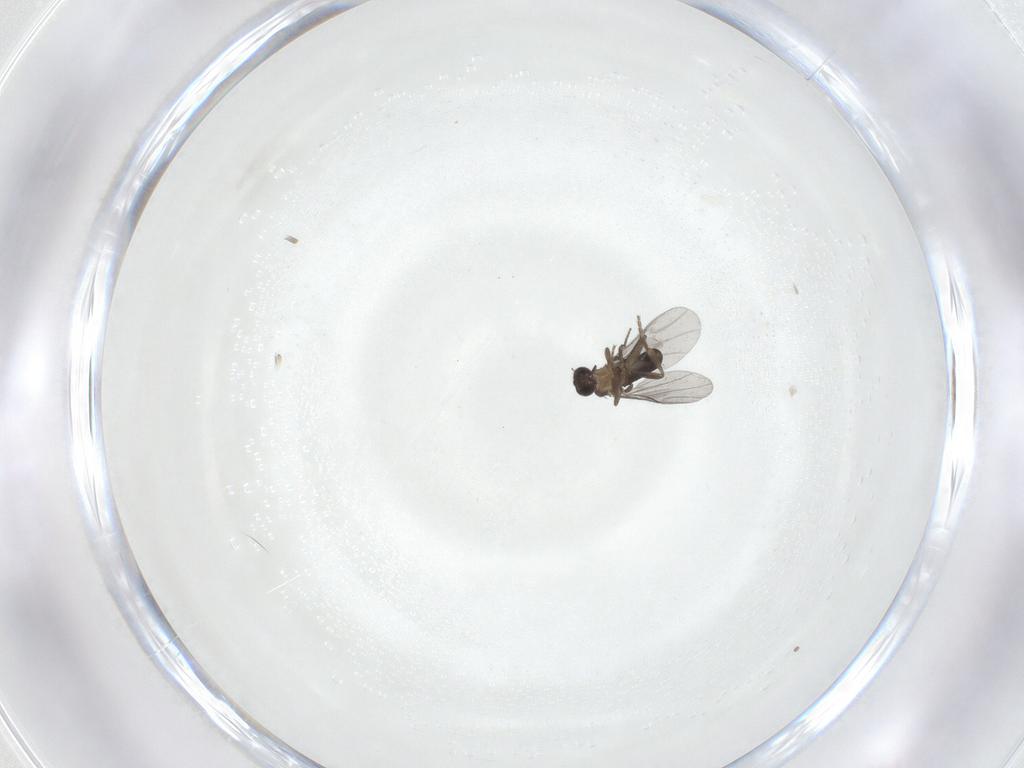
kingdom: Animalia
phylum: Arthropoda
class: Insecta
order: Diptera
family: Phoridae
